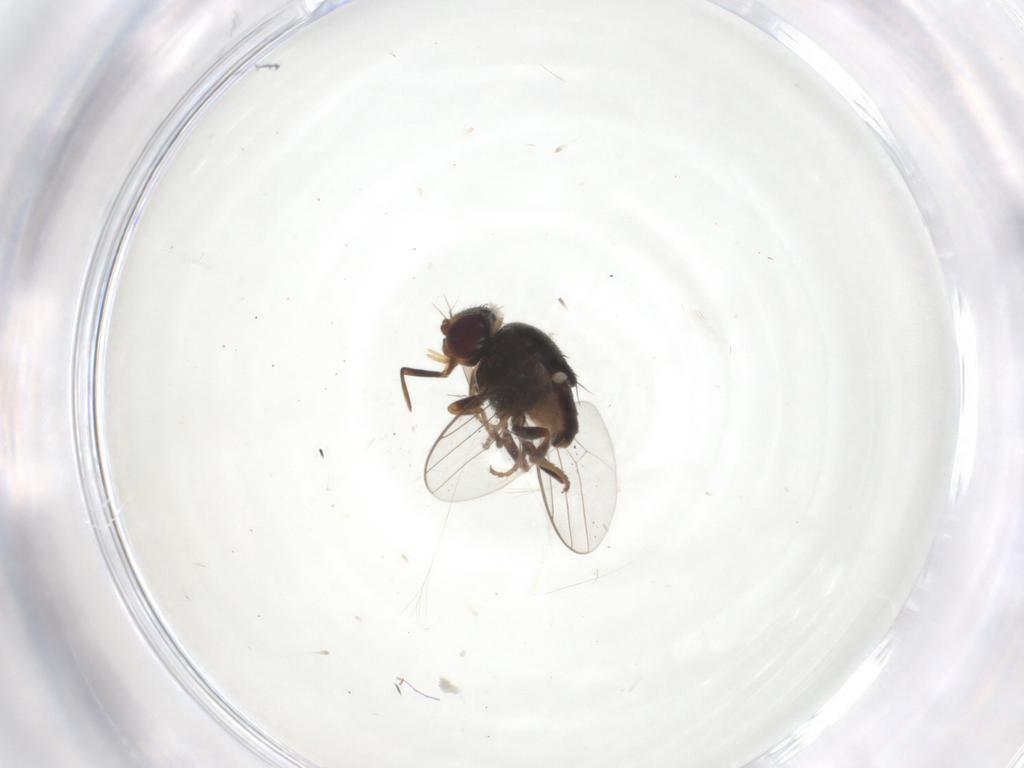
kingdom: Animalia
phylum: Arthropoda
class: Insecta
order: Diptera
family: Chloropidae
